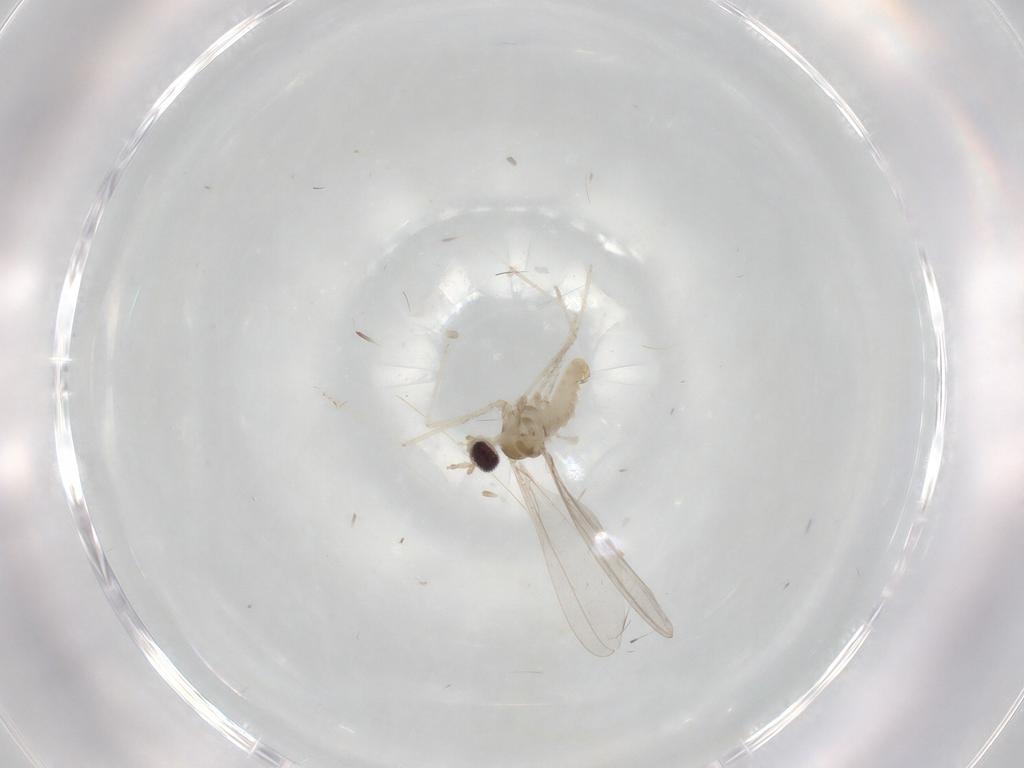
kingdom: Animalia
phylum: Arthropoda
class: Insecta
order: Diptera
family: Cecidomyiidae
